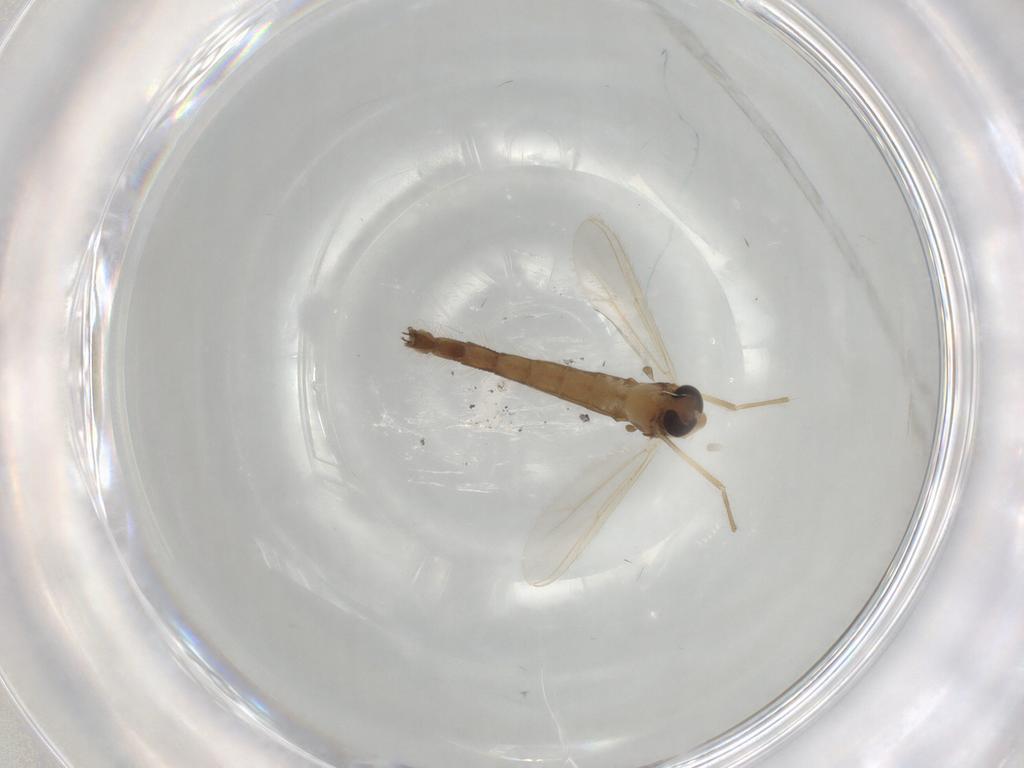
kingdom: Animalia
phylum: Arthropoda
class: Insecta
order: Diptera
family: Chironomidae
